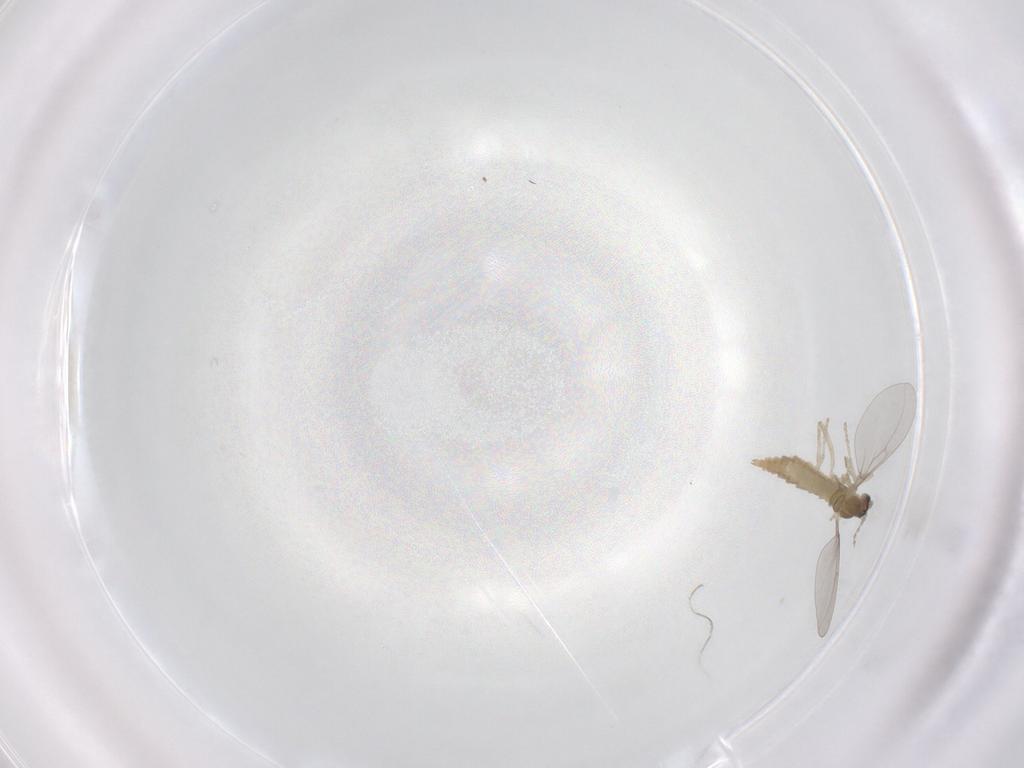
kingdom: Animalia
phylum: Arthropoda
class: Insecta
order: Diptera
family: Cecidomyiidae
